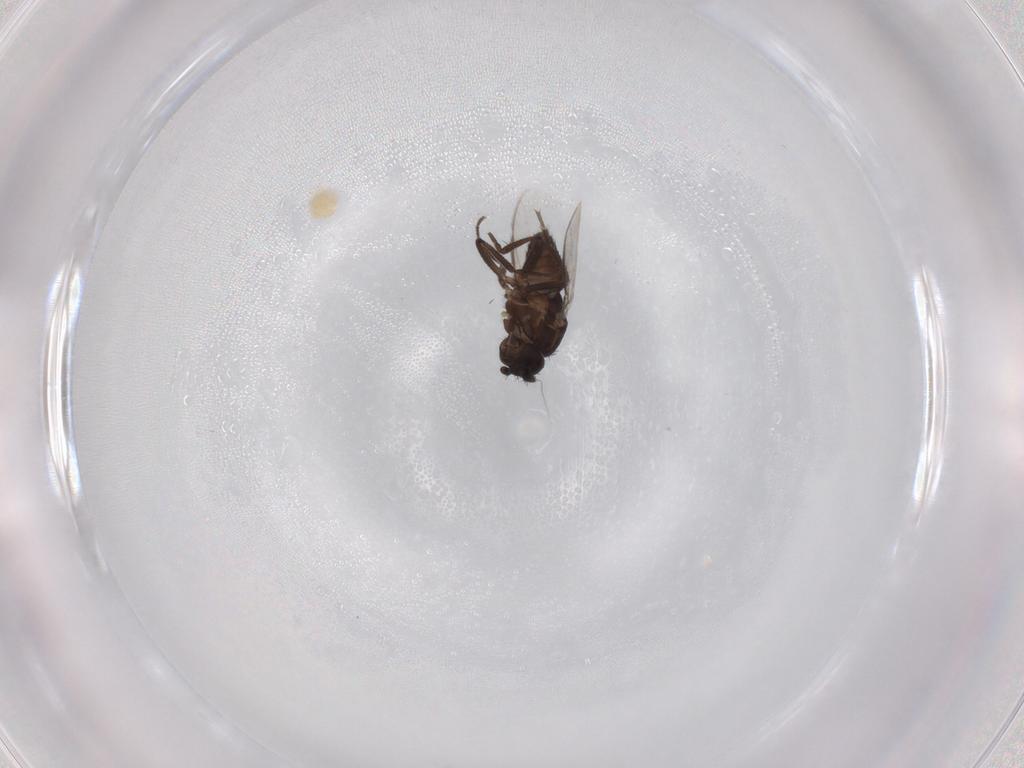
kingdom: Animalia
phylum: Arthropoda
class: Insecta
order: Diptera
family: Sphaeroceridae
